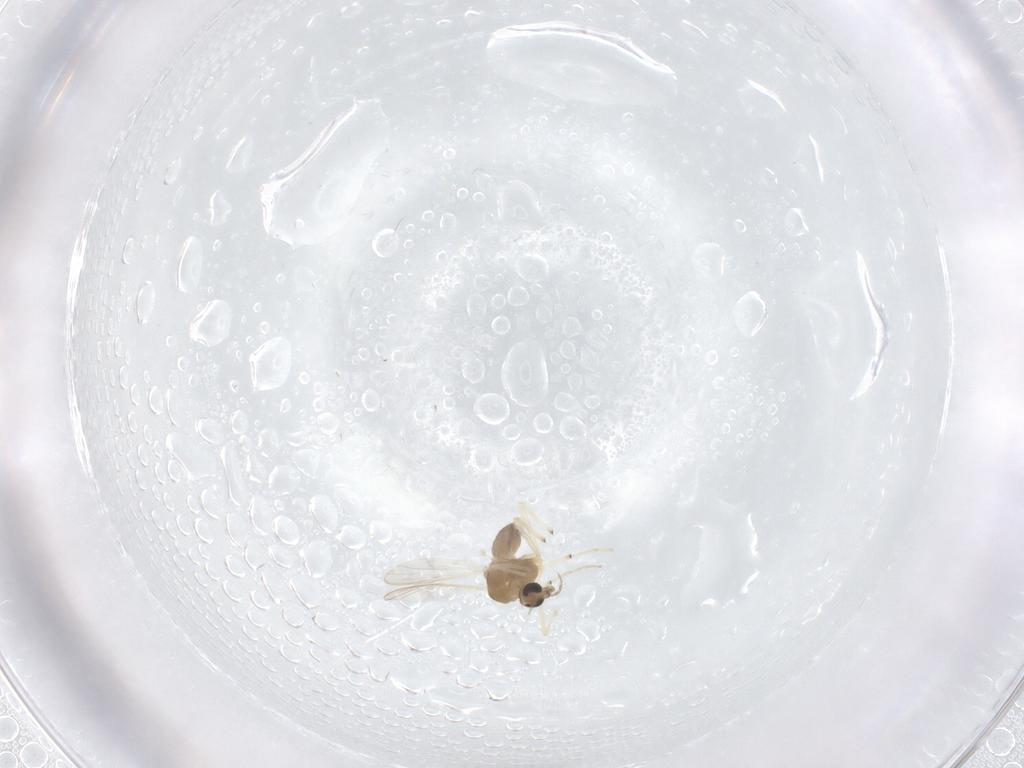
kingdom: Animalia
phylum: Arthropoda
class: Insecta
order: Diptera
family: Chironomidae
